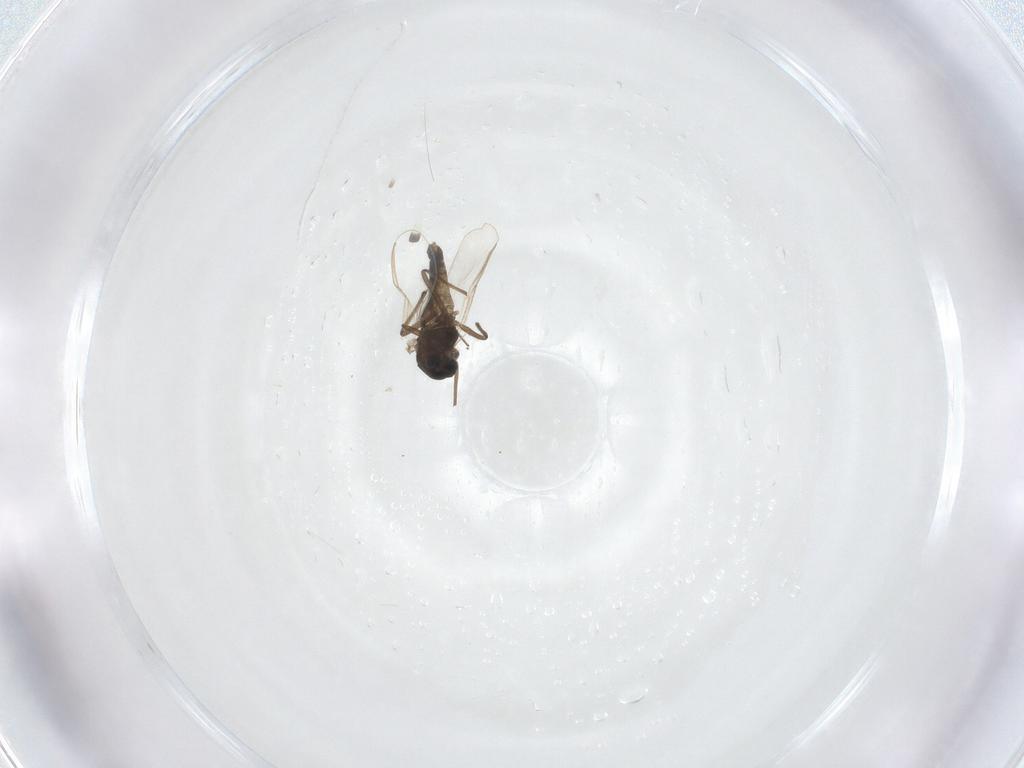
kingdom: Animalia
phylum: Arthropoda
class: Insecta
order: Diptera
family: Chironomidae
